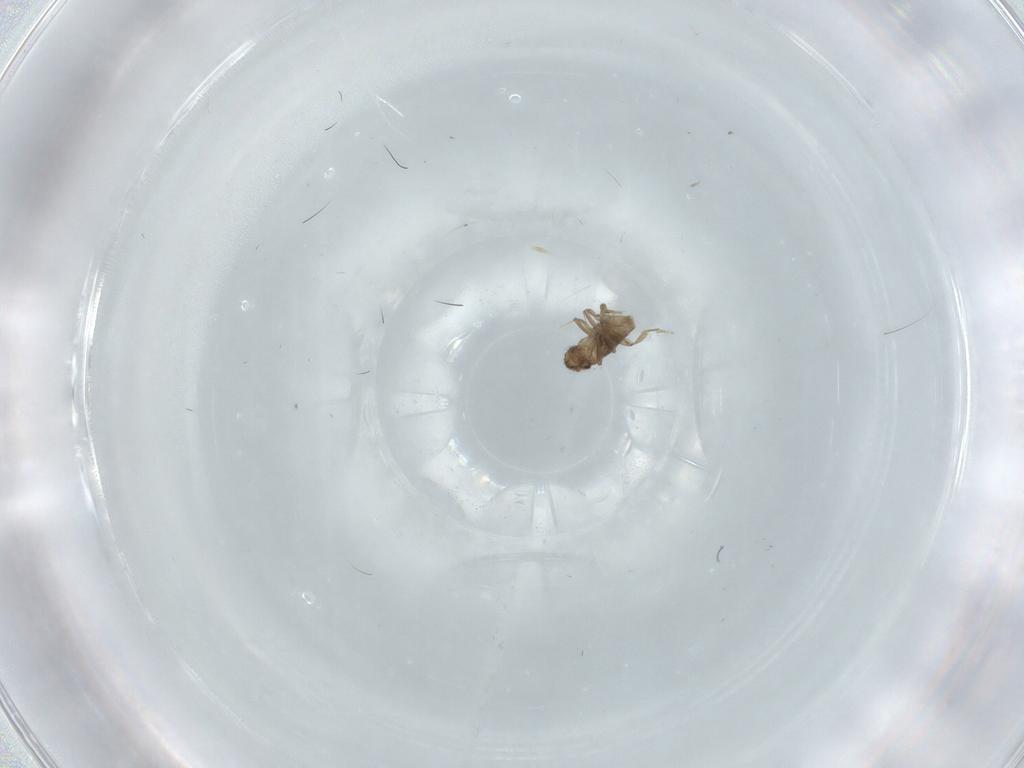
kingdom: Animalia
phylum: Arthropoda
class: Insecta
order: Diptera
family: Sphaeroceridae
